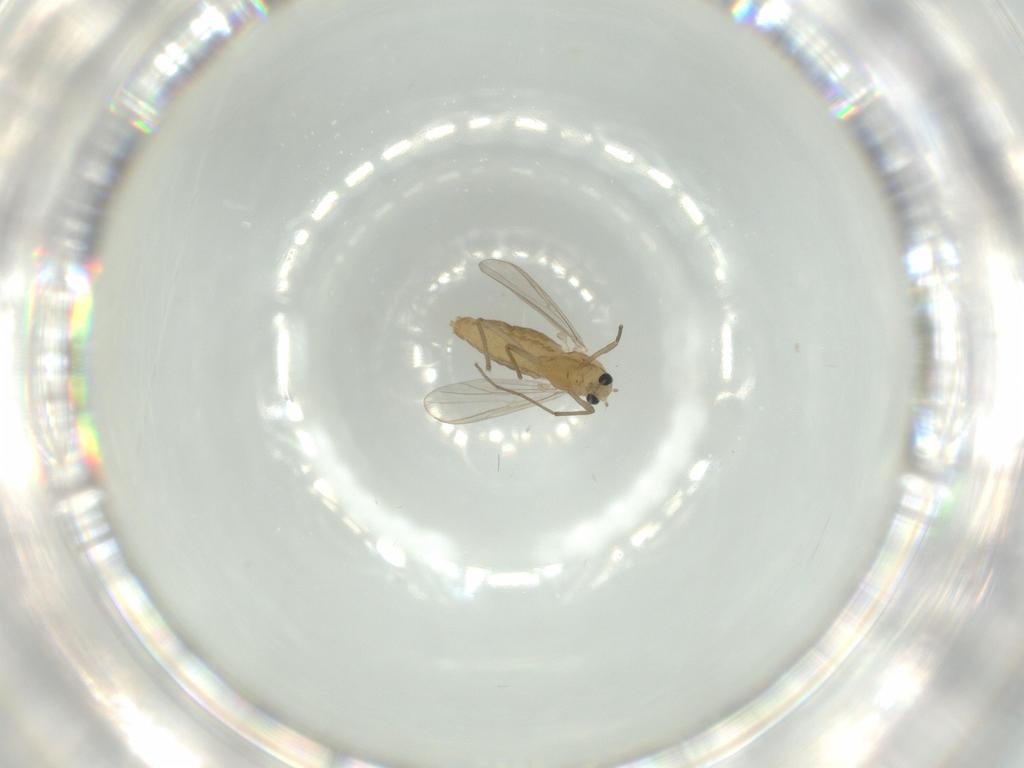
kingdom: Animalia
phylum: Arthropoda
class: Insecta
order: Diptera
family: Chironomidae
